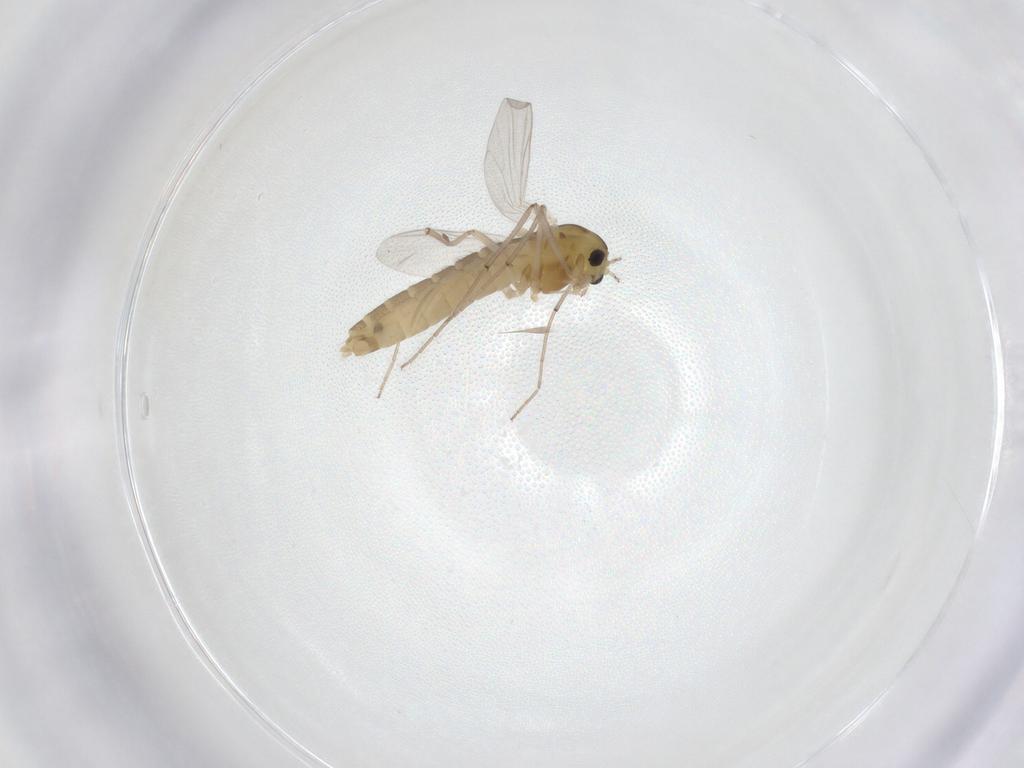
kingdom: Animalia
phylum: Arthropoda
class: Insecta
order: Diptera
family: Chironomidae
